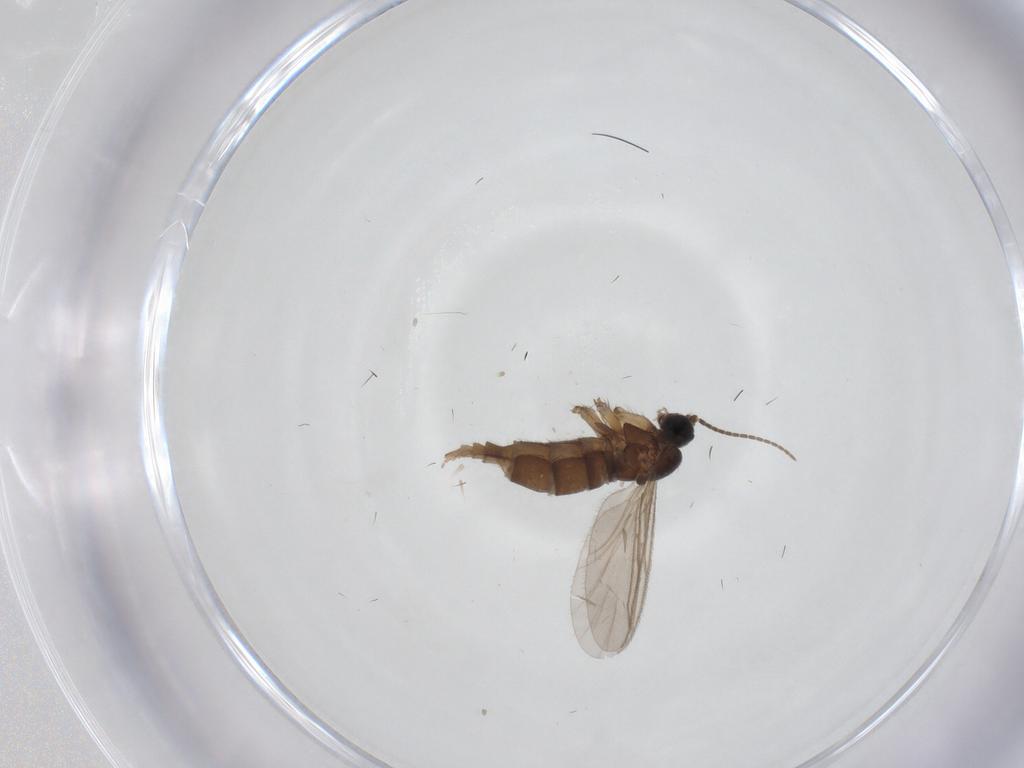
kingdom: Animalia
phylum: Arthropoda
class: Insecta
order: Diptera
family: Sciaridae
